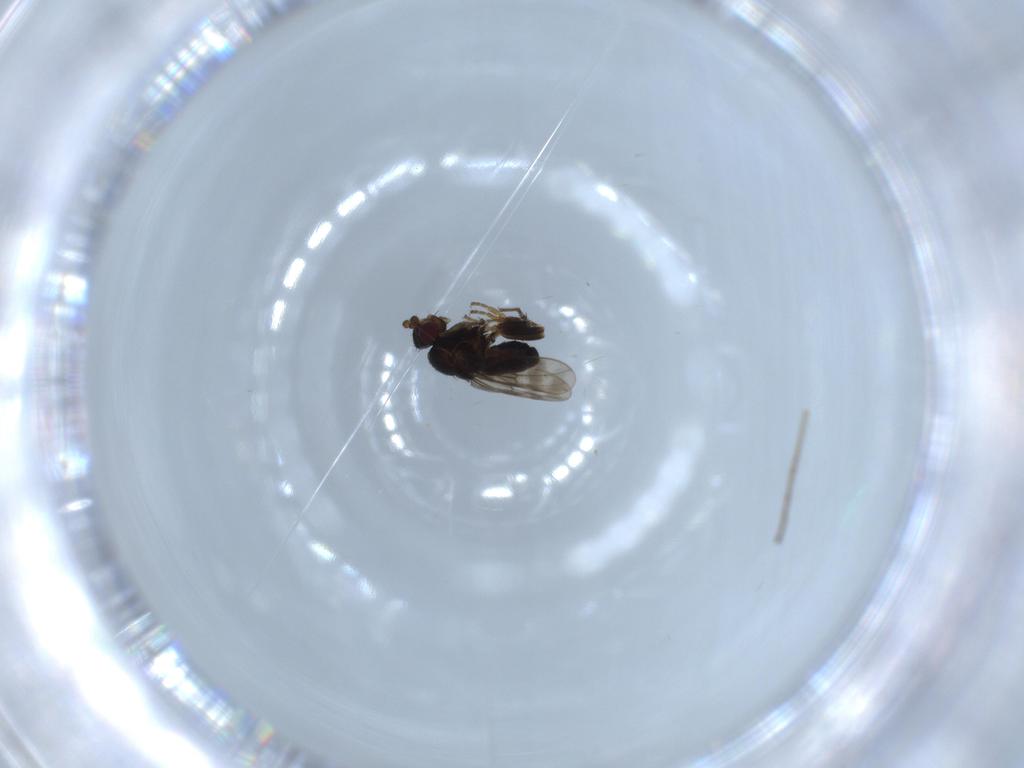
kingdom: Animalia
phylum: Arthropoda
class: Insecta
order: Diptera
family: Sphaeroceridae
